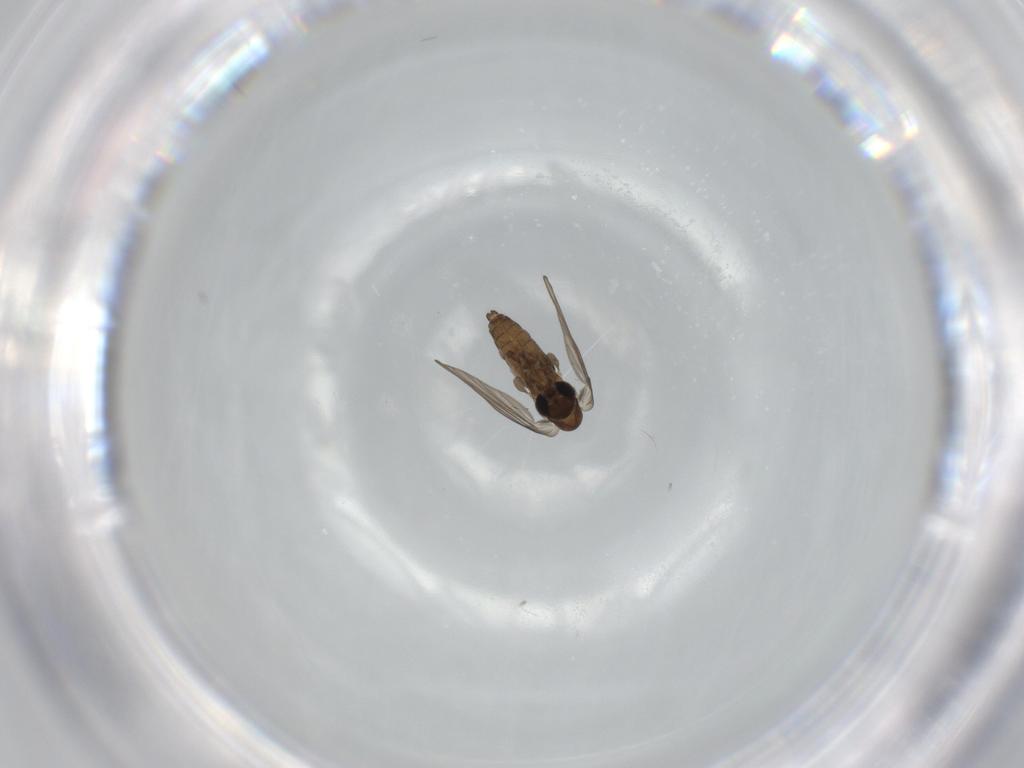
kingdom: Animalia
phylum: Arthropoda
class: Insecta
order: Diptera
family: Psychodidae
